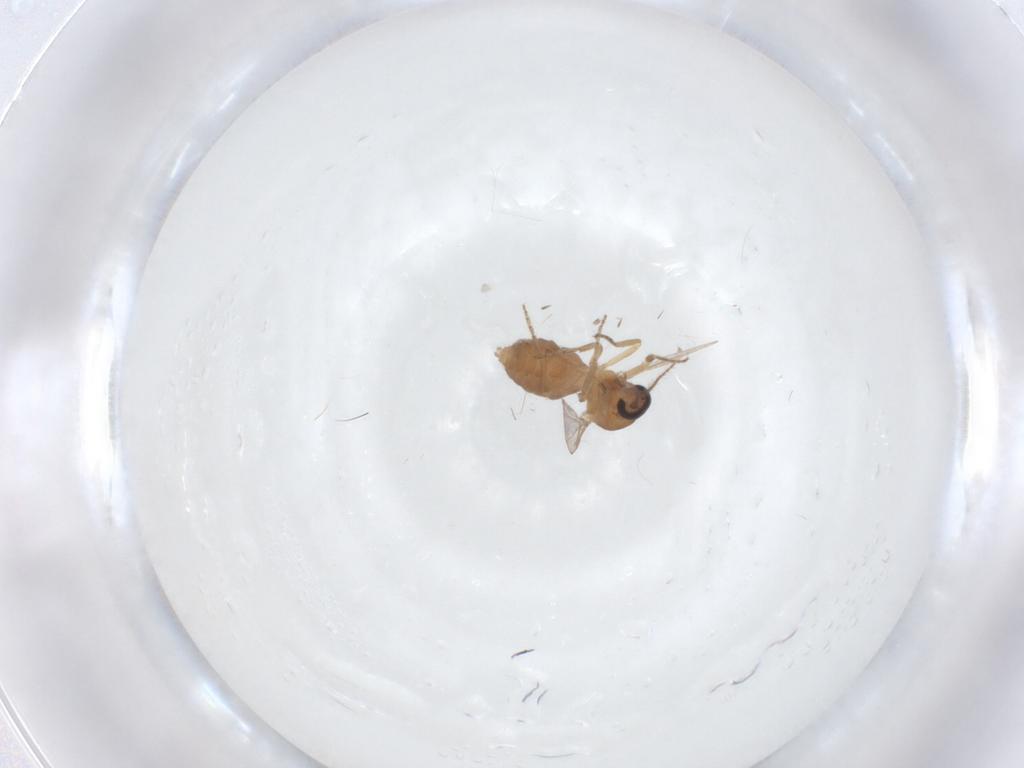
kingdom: Animalia
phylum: Arthropoda
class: Insecta
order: Diptera
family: Ceratopogonidae
